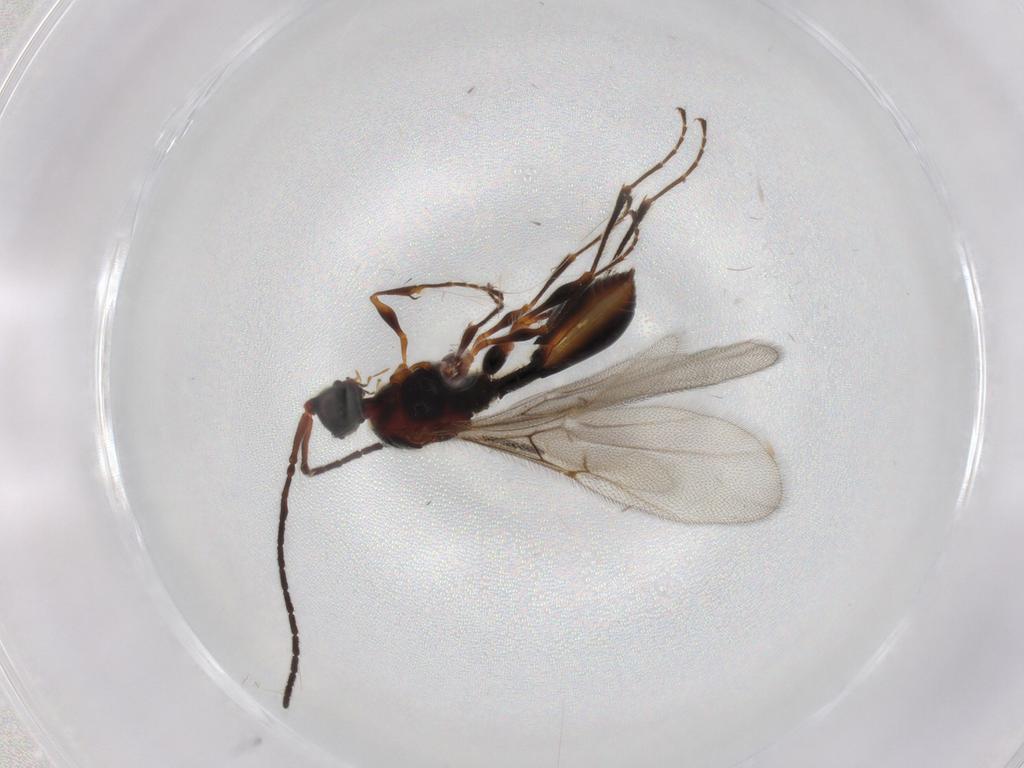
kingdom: Animalia
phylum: Arthropoda
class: Insecta
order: Hymenoptera
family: Diapriidae
